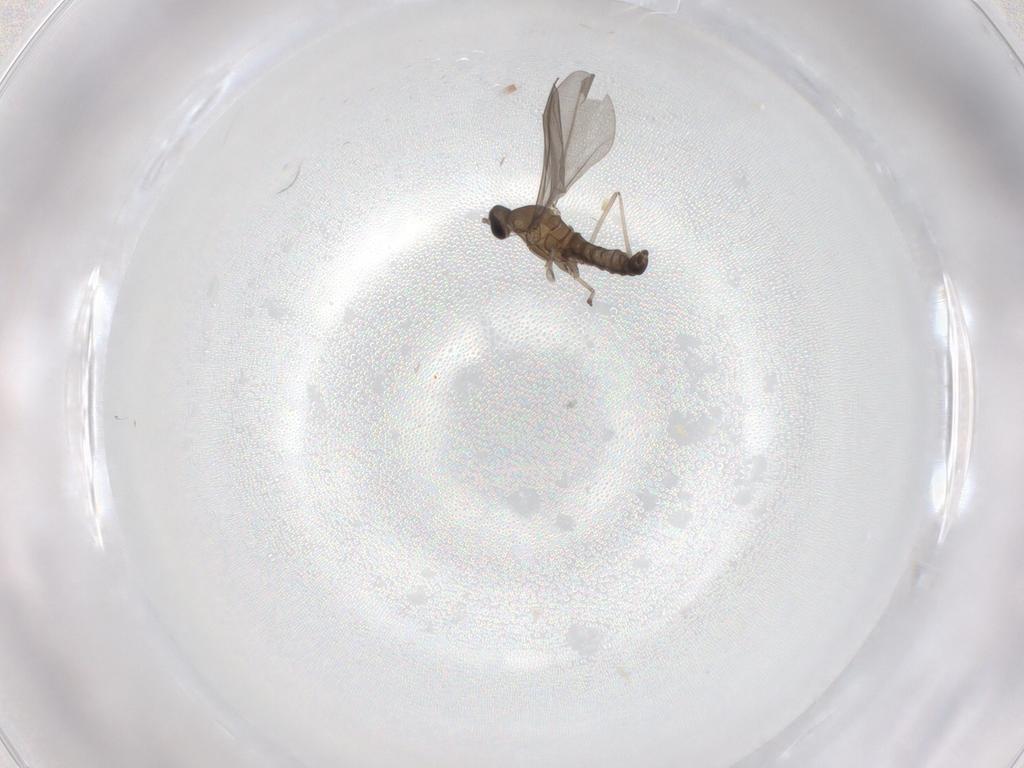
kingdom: Animalia
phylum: Arthropoda
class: Insecta
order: Diptera
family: Cecidomyiidae
